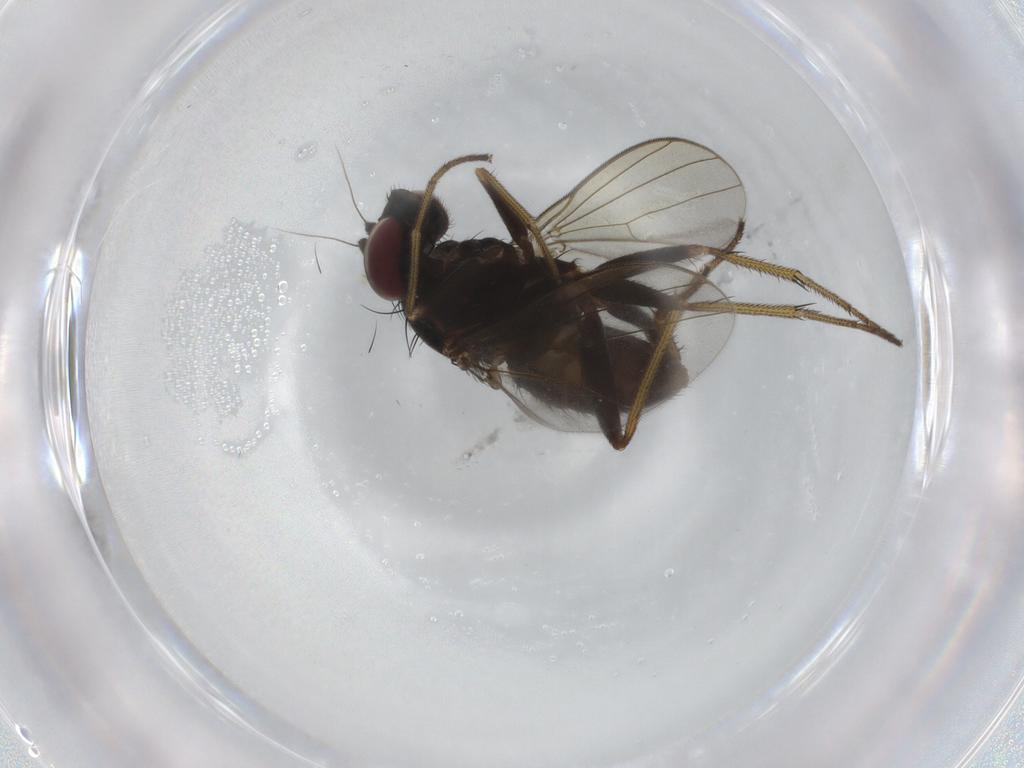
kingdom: Animalia
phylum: Arthropoda
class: Insecta
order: Diptera
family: Dolichopodidae
